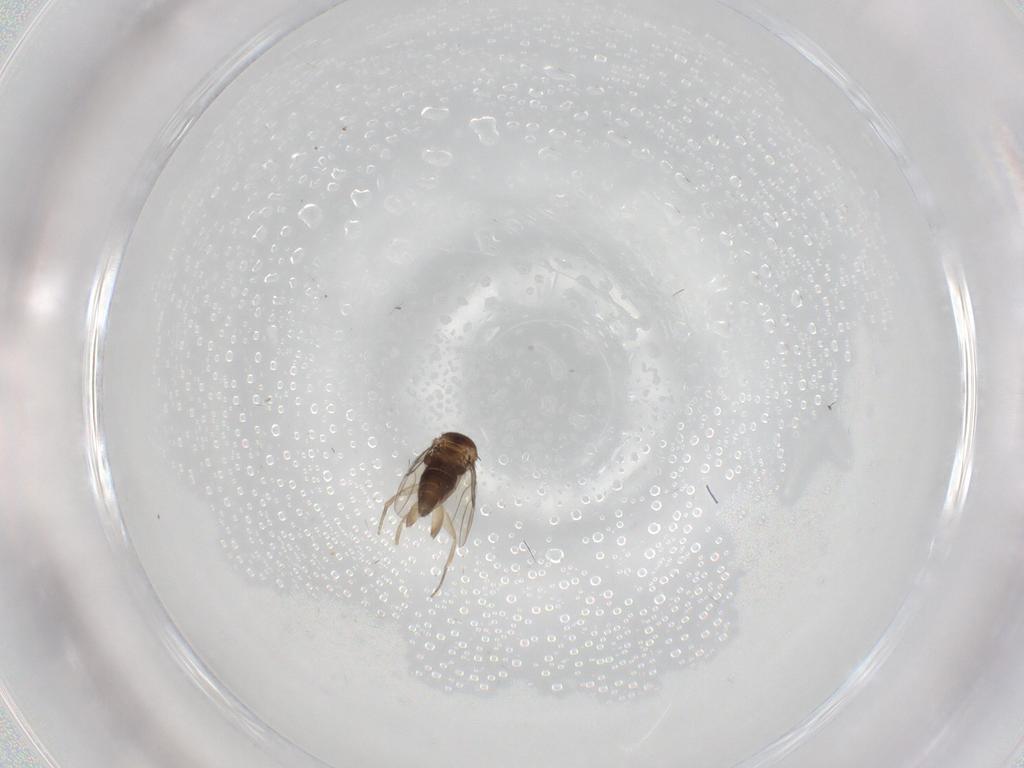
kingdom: Animalia
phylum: Arthropoda
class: Insecta
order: Diptera
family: Phoridae
